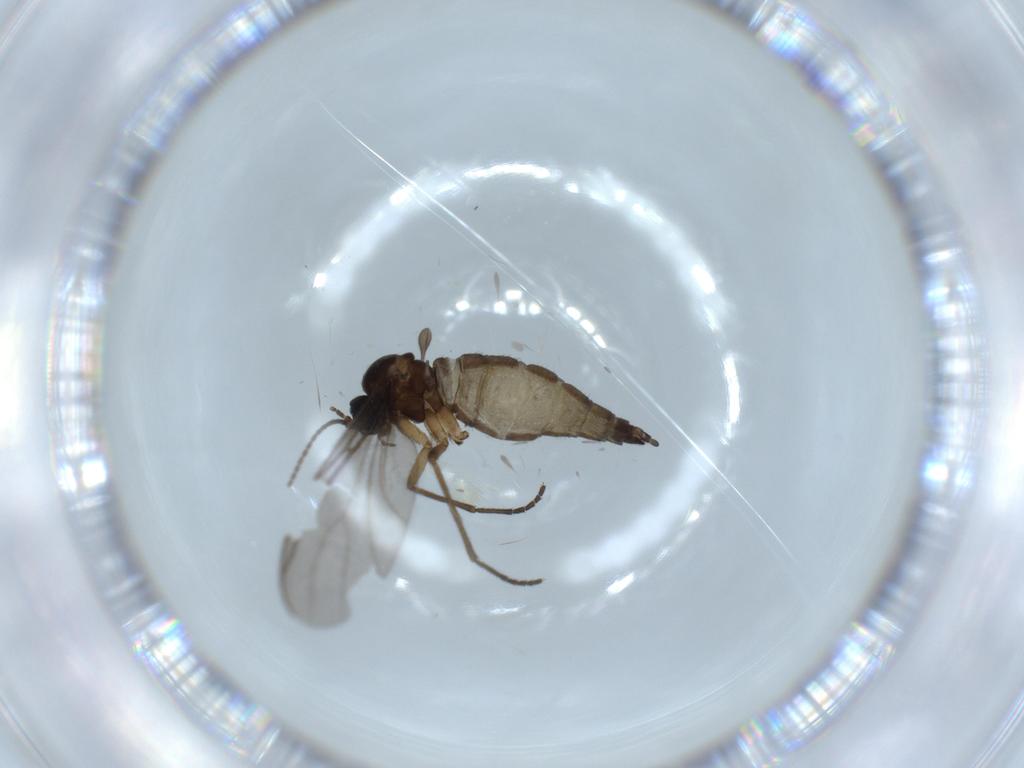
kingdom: Animalia
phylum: Arthropoda
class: Insecta
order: Diptera
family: Sciaridae
